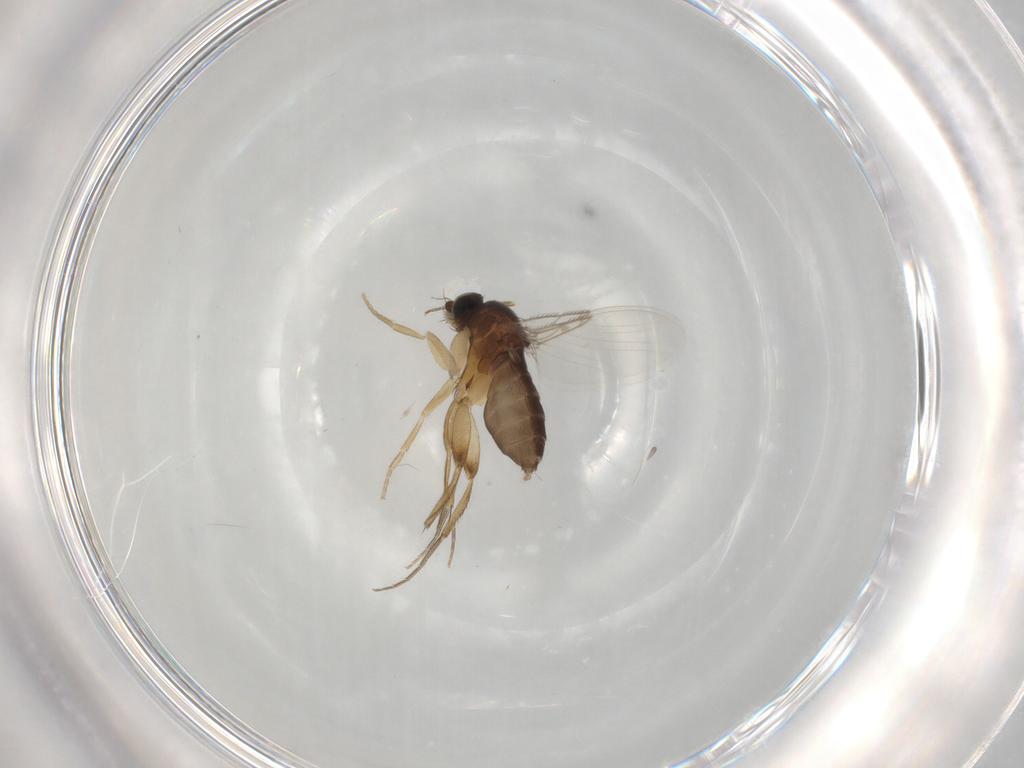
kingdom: Animalia
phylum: Arthropoda
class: Insecta
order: Diptera
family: Phoridae
